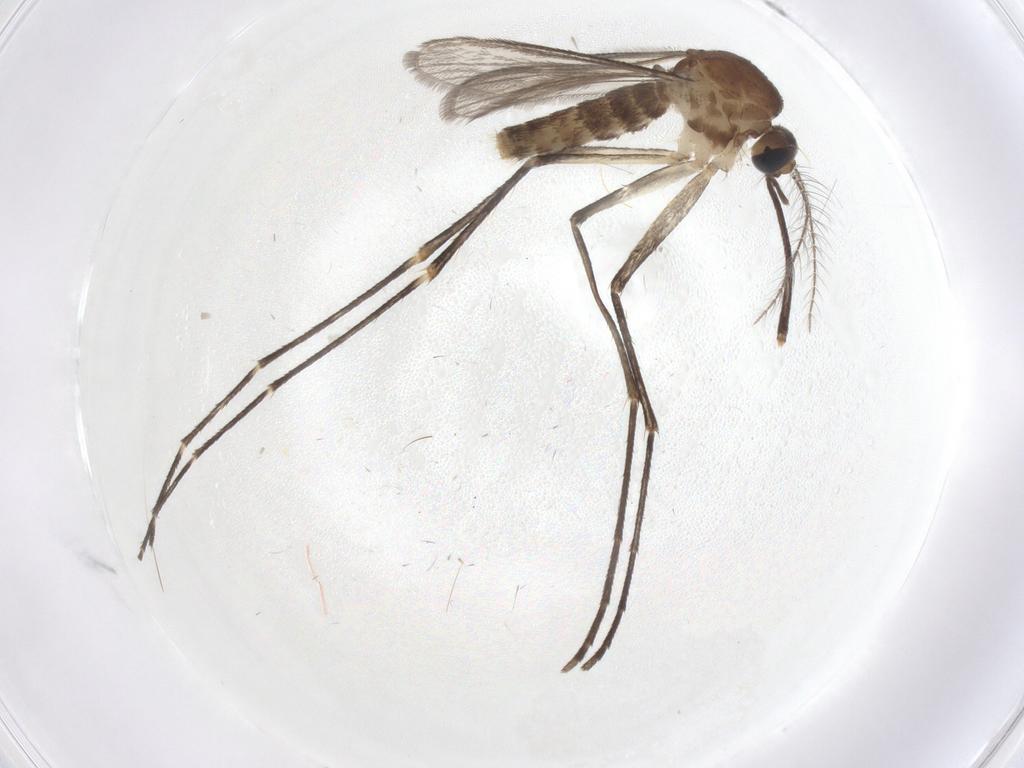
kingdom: Animalia
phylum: Arthropoda
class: Insecta
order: Diptera
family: Culicidae
